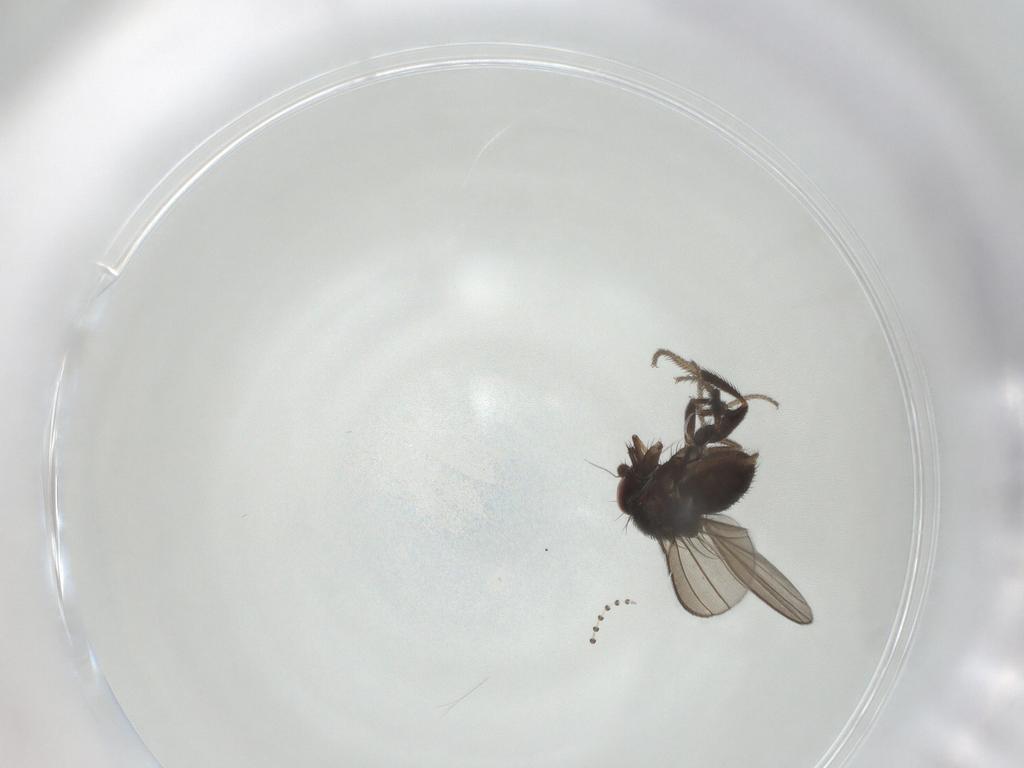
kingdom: Animalia
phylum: Arthropoda
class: Insecta
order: Diptera
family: Milichiidae
